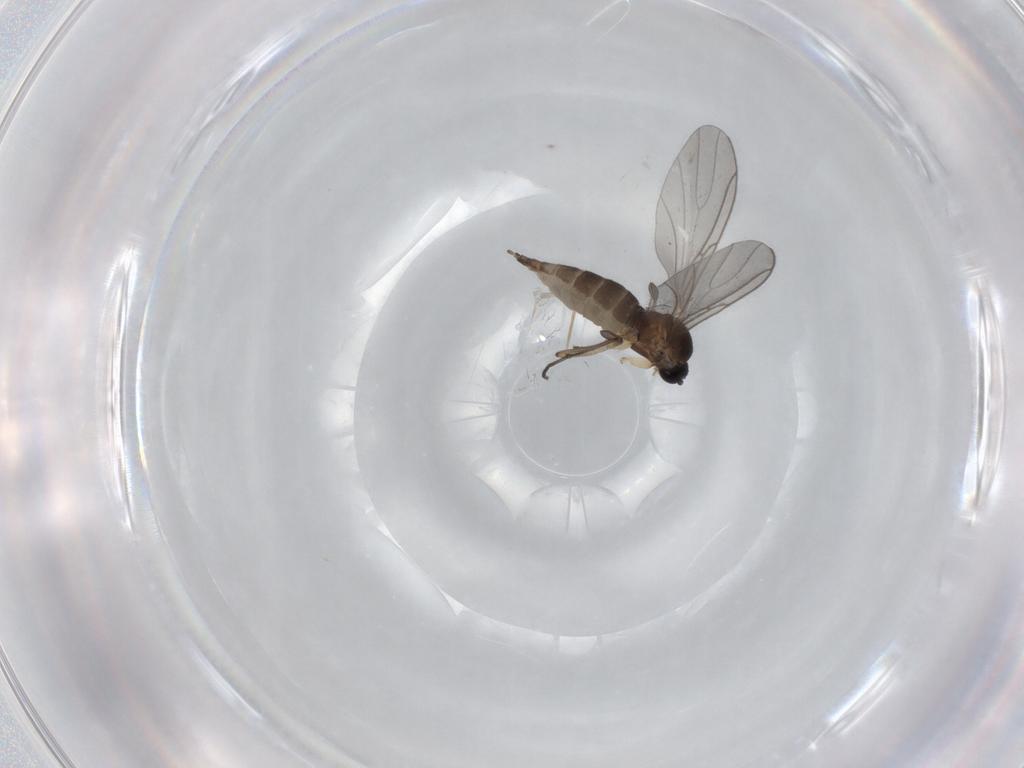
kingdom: Animalia
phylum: Arthropoda
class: Insecta
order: Diptera
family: Sciaridae
